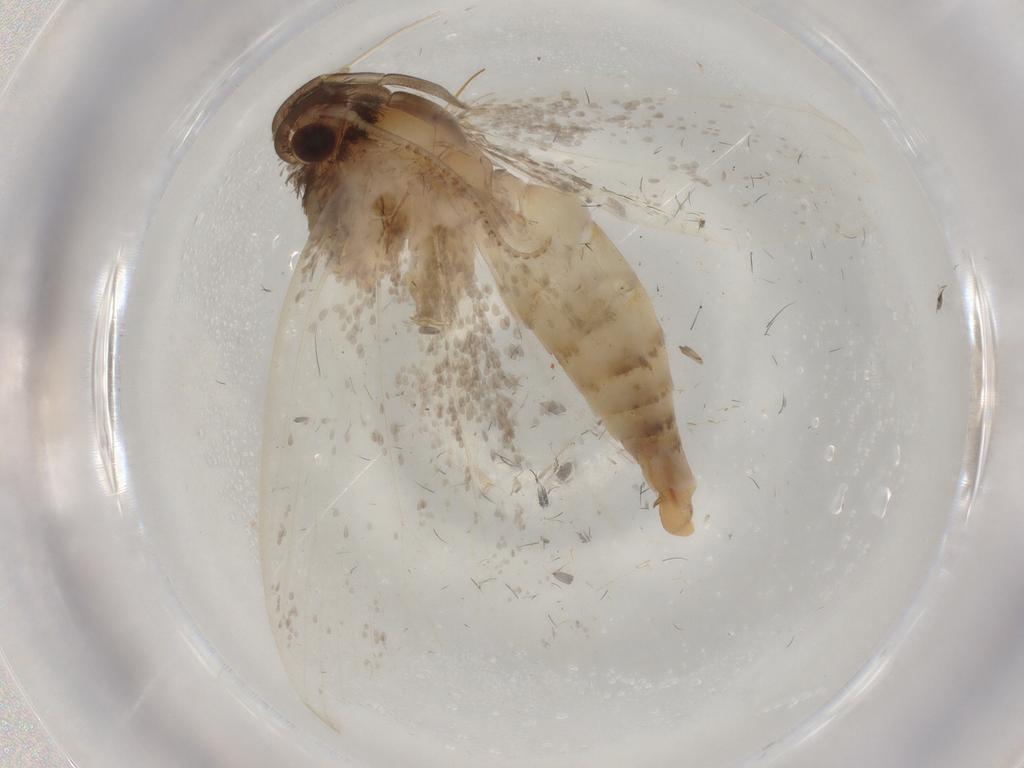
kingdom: Animalia
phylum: Arthropoda
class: Insecta
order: Lepidoptera
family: Tineidae
